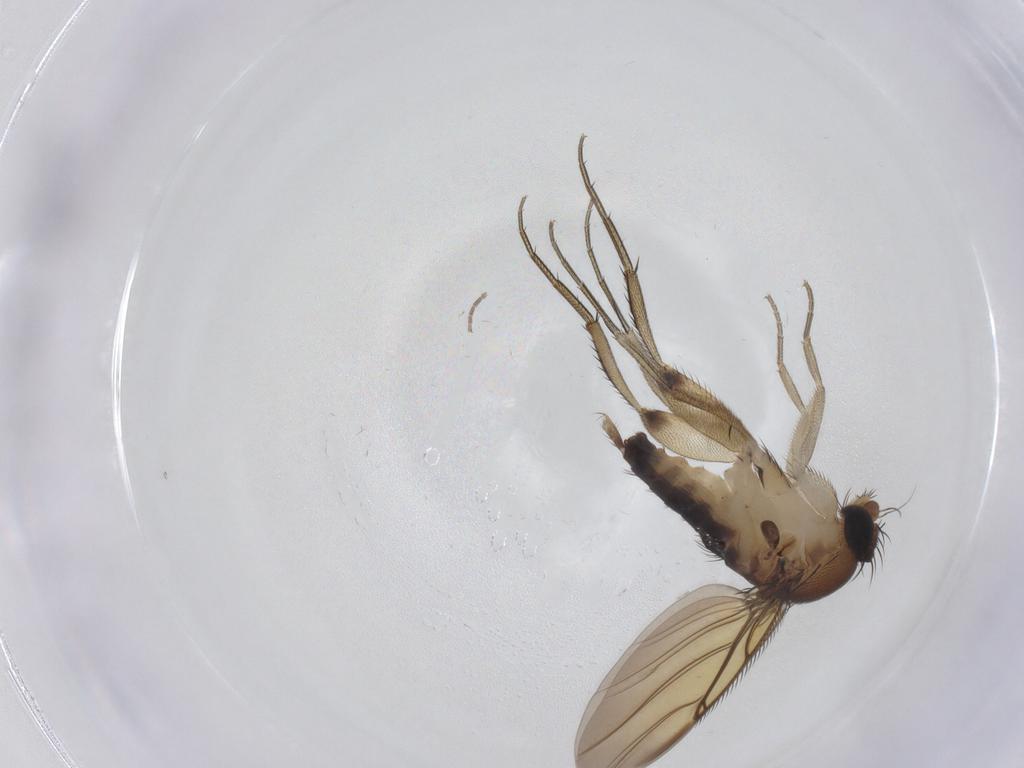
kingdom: Animalia
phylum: Arthropoda
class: Insecta
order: Diptera
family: Phoridae
